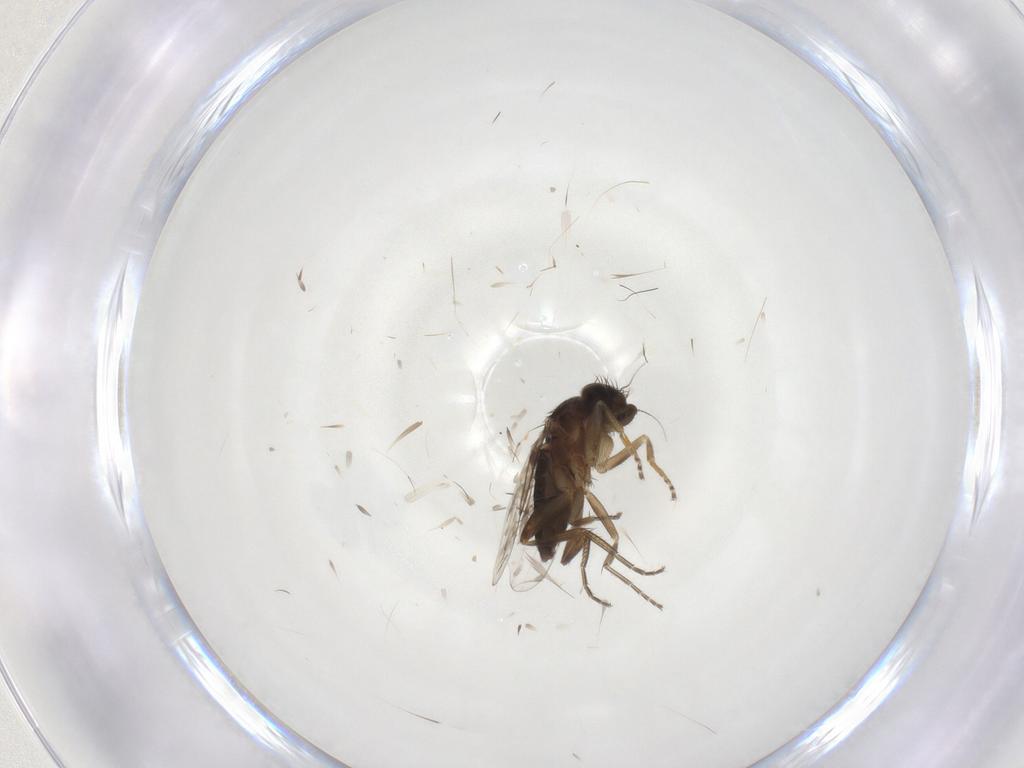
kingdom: Animalia
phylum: Arthropoda
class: Insecta
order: Diptera
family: Phoridae
